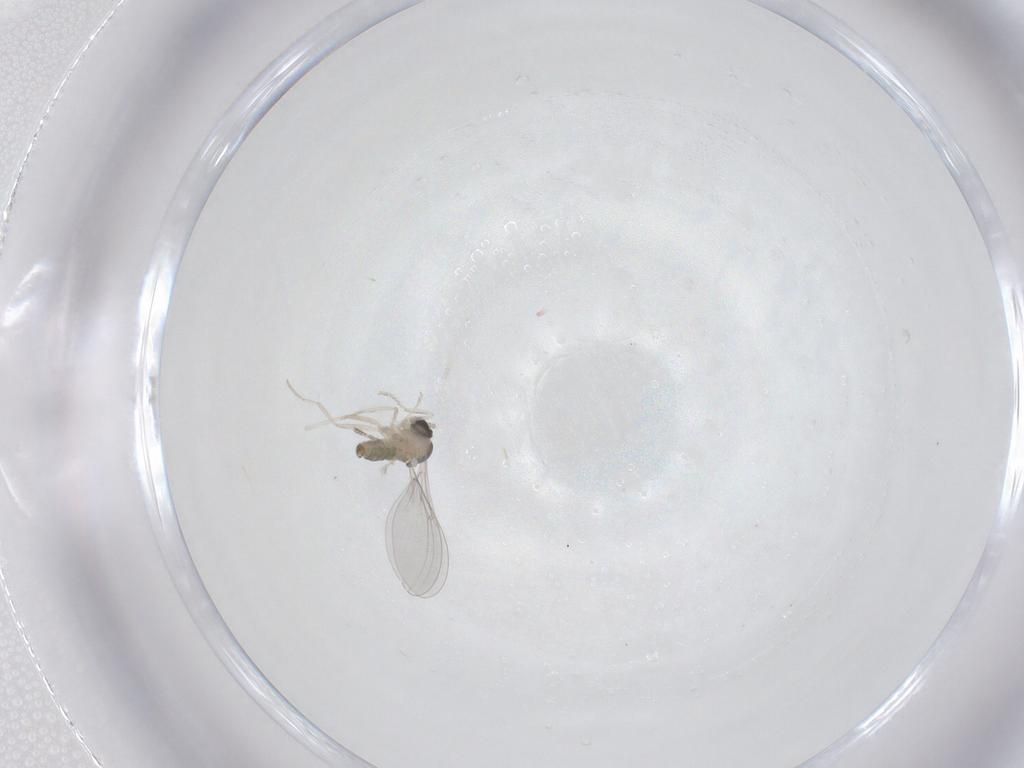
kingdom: Animalia
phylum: Arthropoda
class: Insecta
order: Diptera
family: Cecidomyiidae
